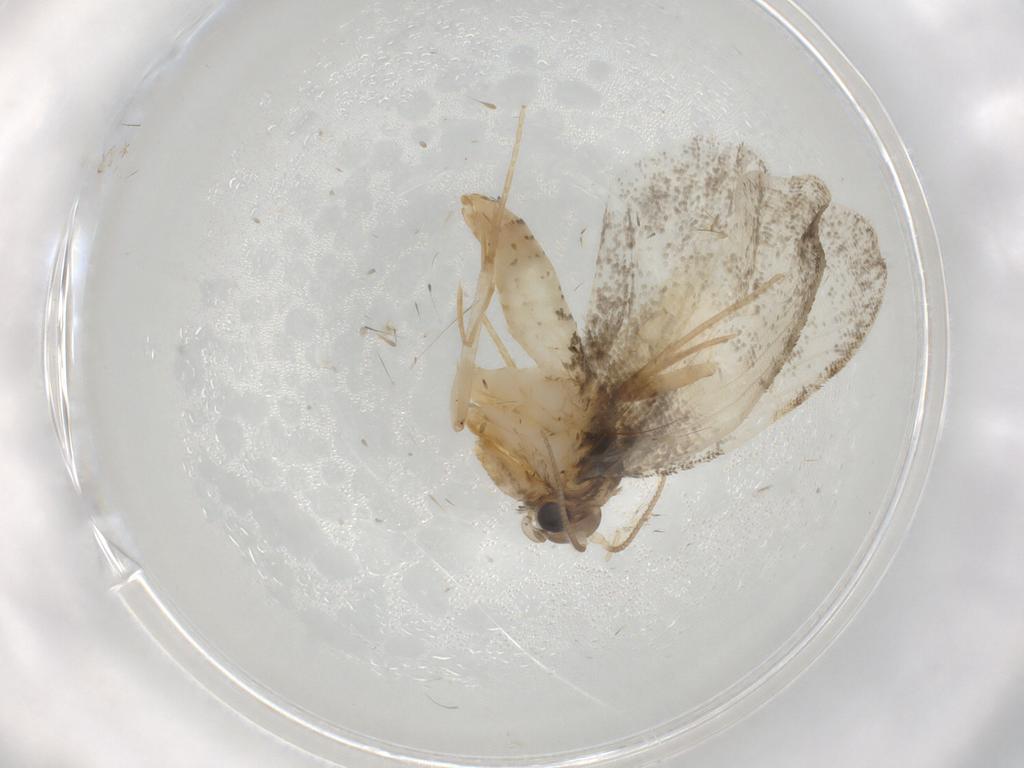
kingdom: Animalia
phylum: Arthropoda
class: Insecta
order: Lepidoptera
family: Psychidae
